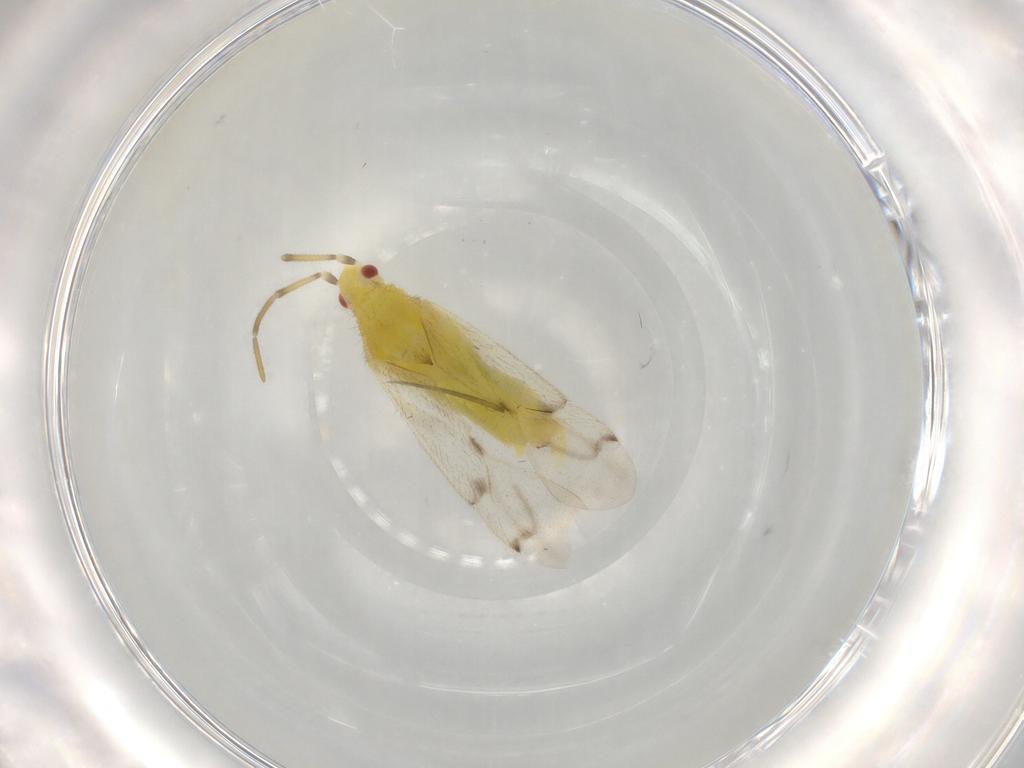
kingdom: Animalia
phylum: Arthropoda
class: Insecta
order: Hemiptera
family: Miridae
